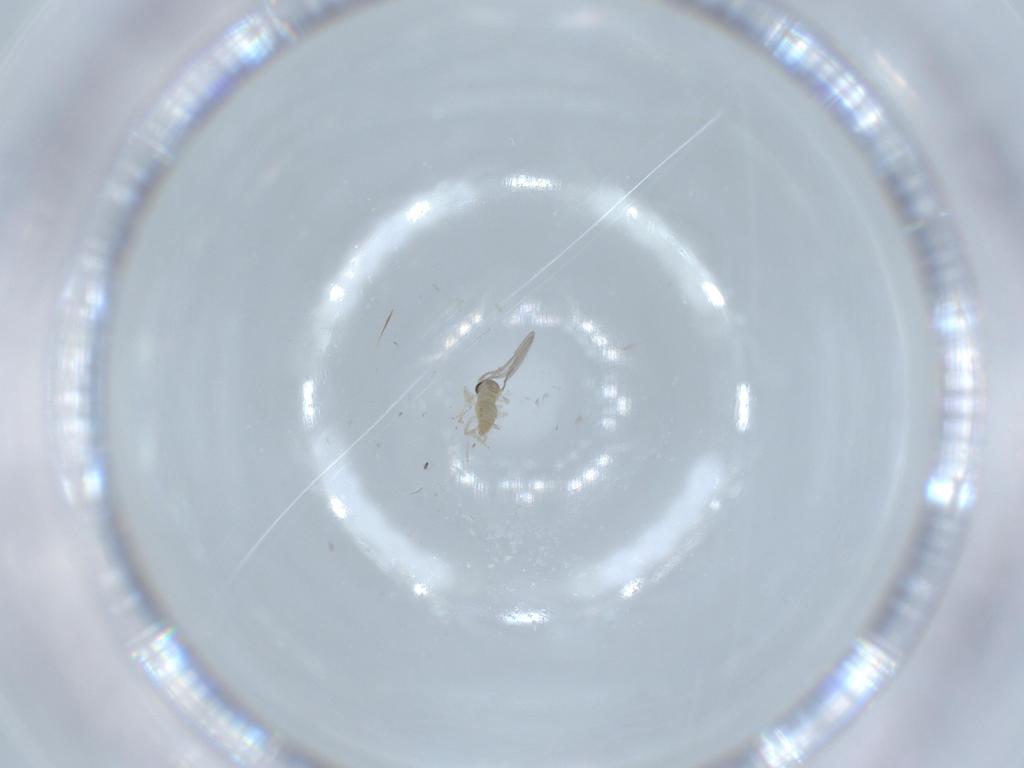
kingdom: Animalia
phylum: Arthropoda
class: Insecta
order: Diptera
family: Cecidomyiidae
